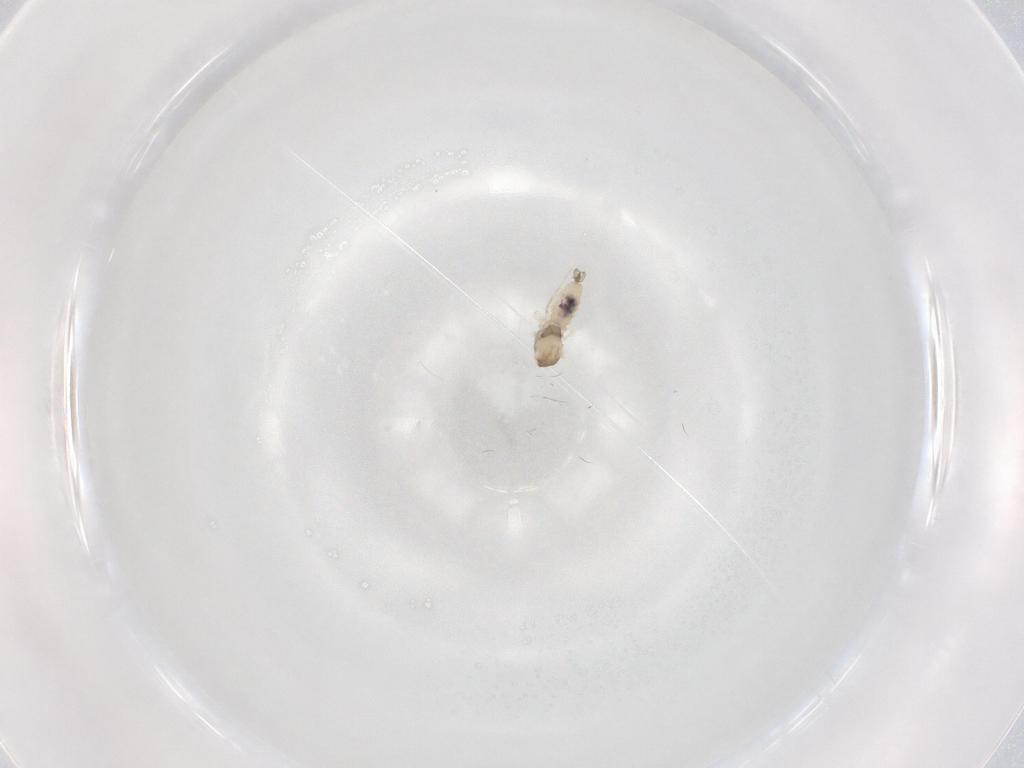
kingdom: Animalia
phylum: Arthropoda
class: Insecta
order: Diptera
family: Cecidomyiidae
